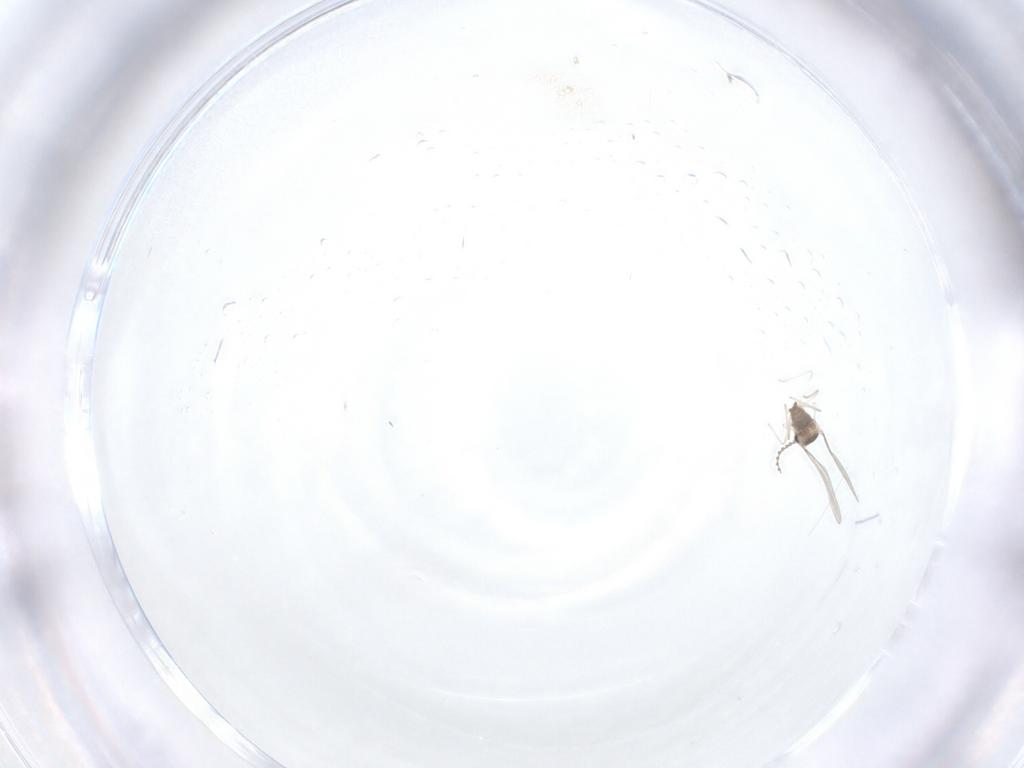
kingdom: Animalia
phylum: Arthropoda
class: Insecta
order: Diptera
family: Cecidomyiidae
